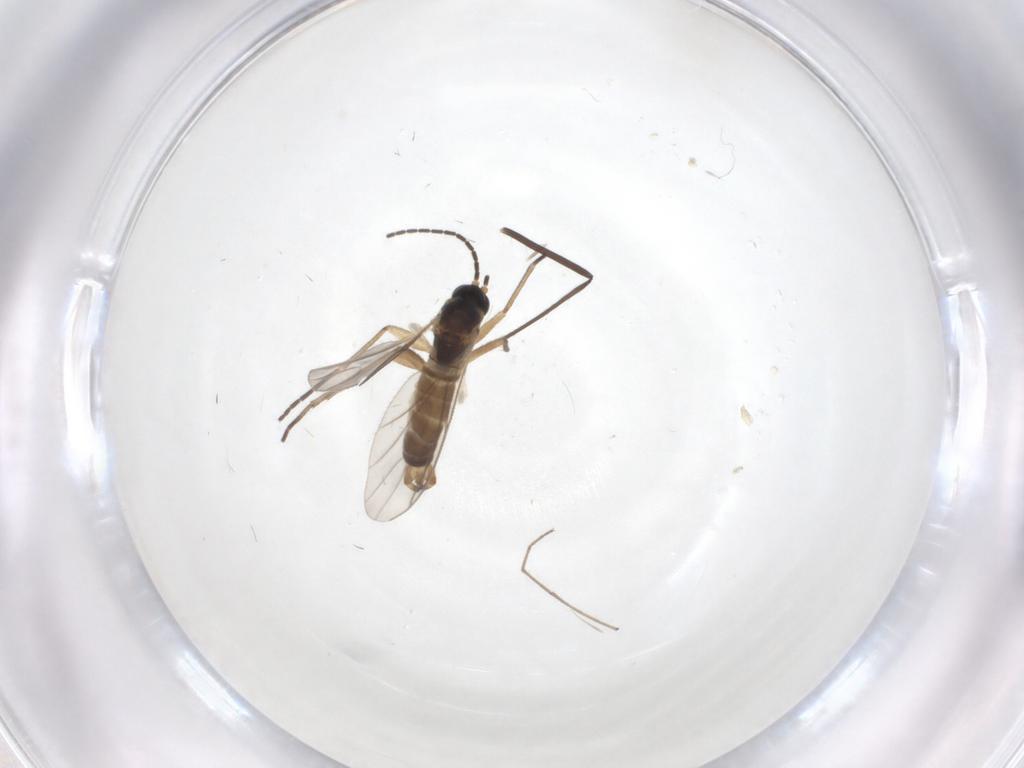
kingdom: Animalia
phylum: Arthropoda
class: Insecta
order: Diptera
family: Chironomidae
